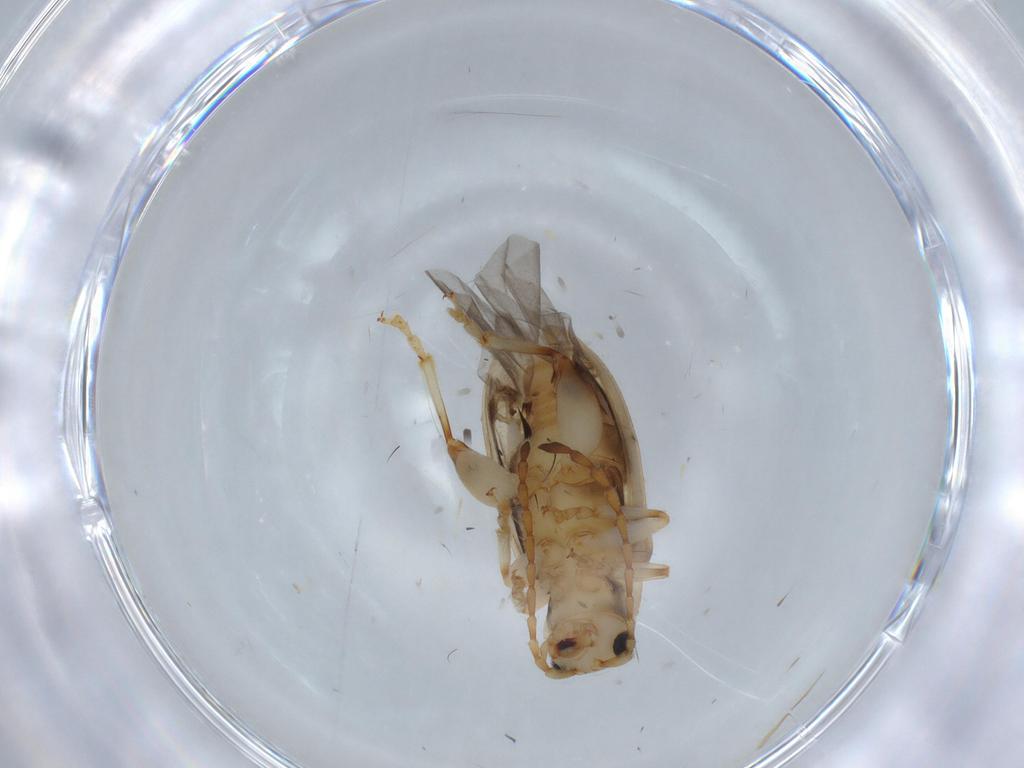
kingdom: Animalia
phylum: Arthropoda
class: Insecta
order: Coleoptera
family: Chrysomelidae
